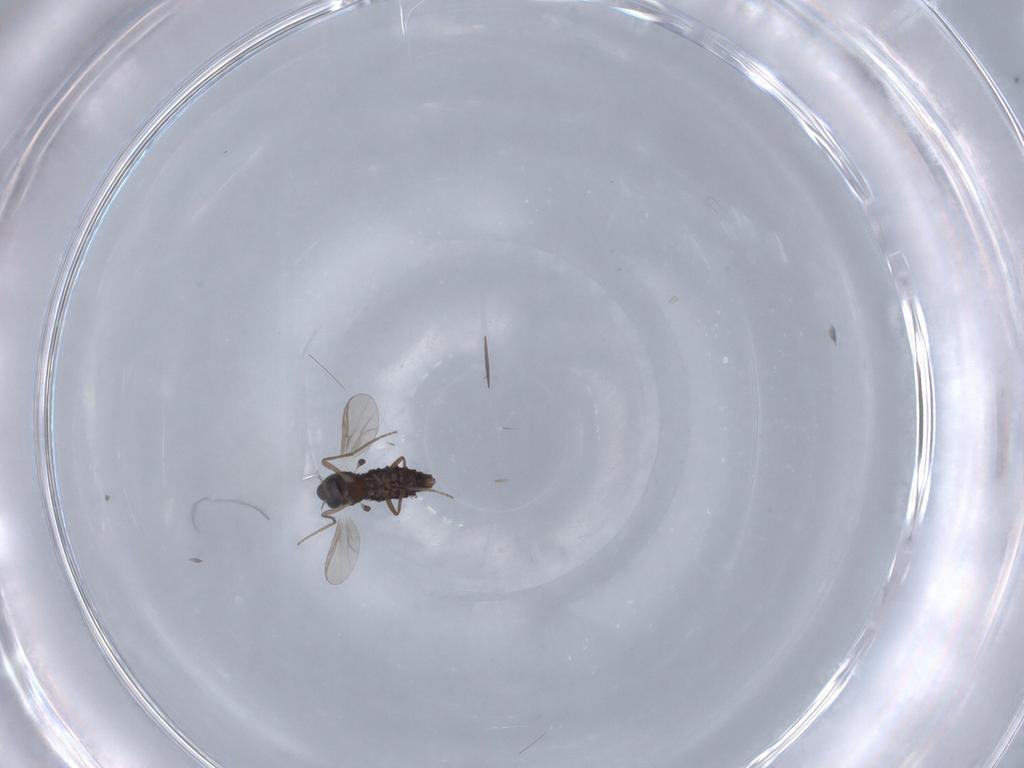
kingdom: Animalia
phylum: Arthropoda
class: Insecta
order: Diptera
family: Chironomidae
